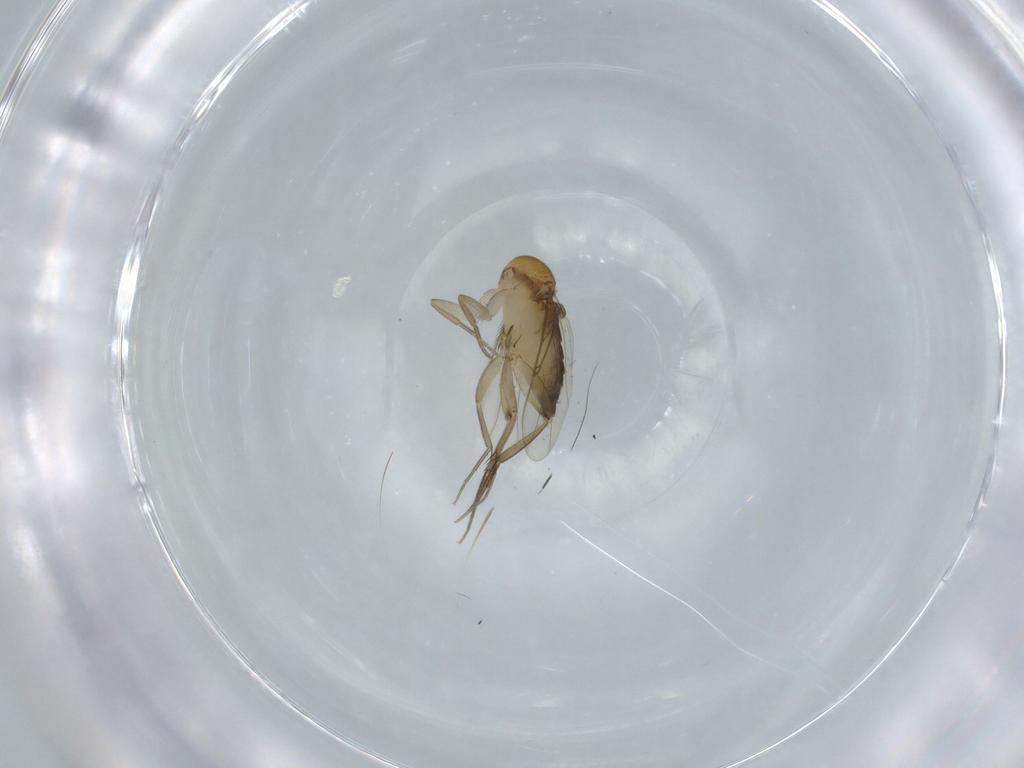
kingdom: Animalia
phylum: Arthropoda
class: Insecta
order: Diptera
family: Phoridae
